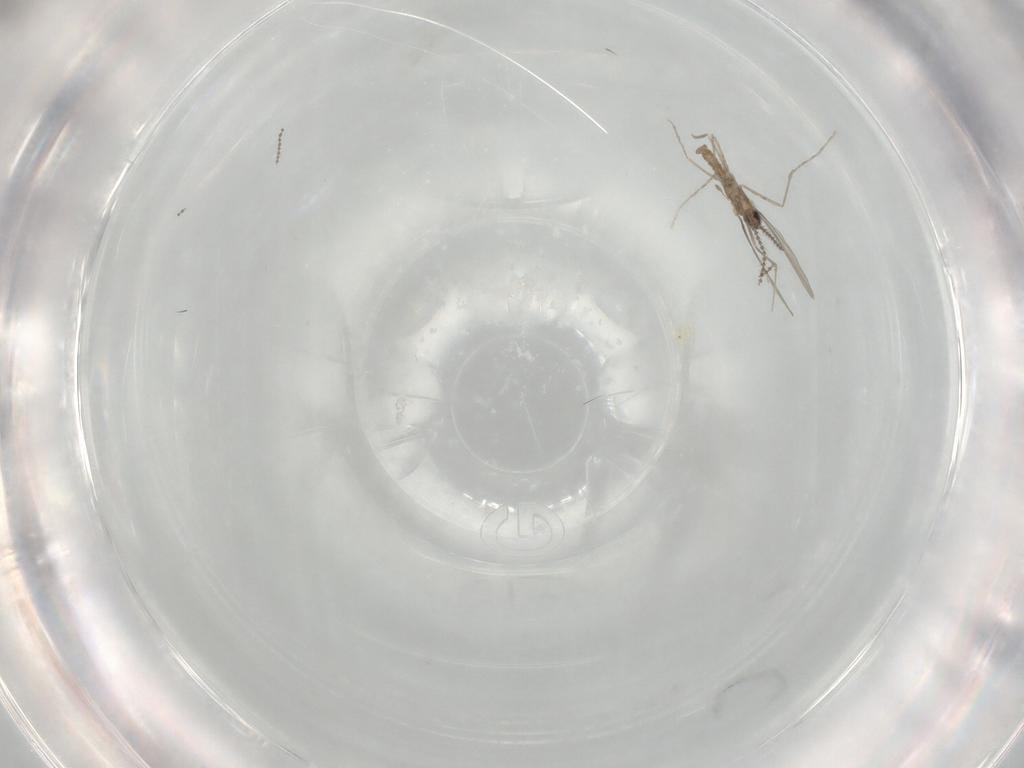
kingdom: Animalia
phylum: Arthropoda
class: Insecta
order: Diptera
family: Cecidomyiidae
